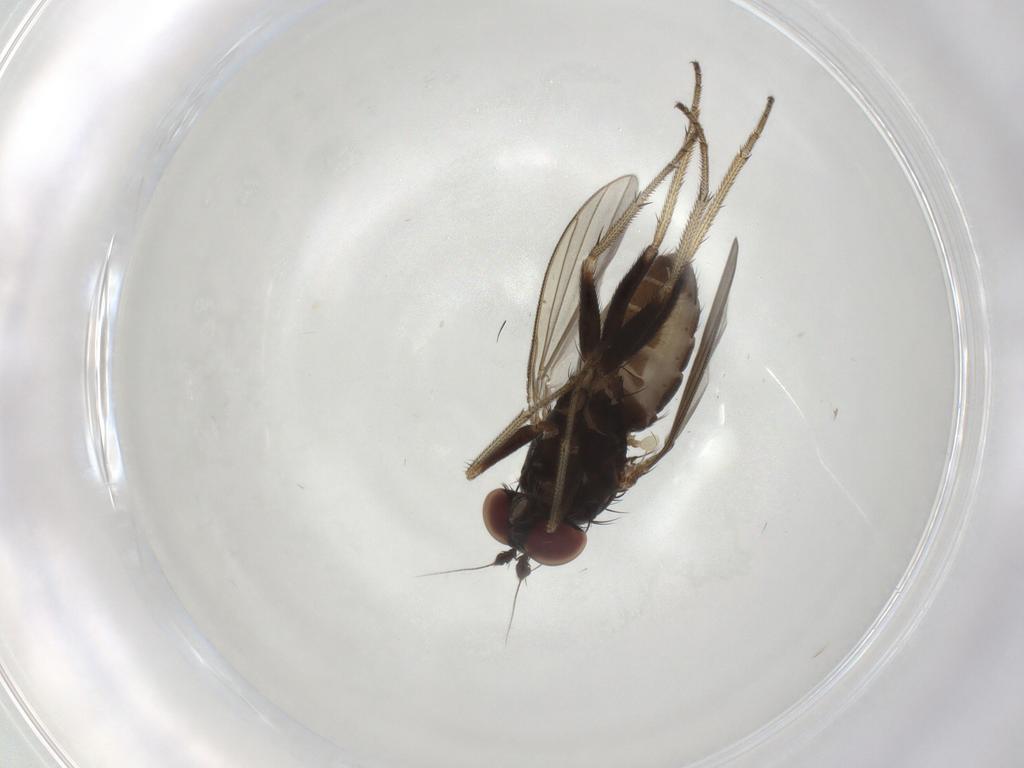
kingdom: Animalia
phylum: Arthropoda
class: Insecta
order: Diptera
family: Dolichopodidae
